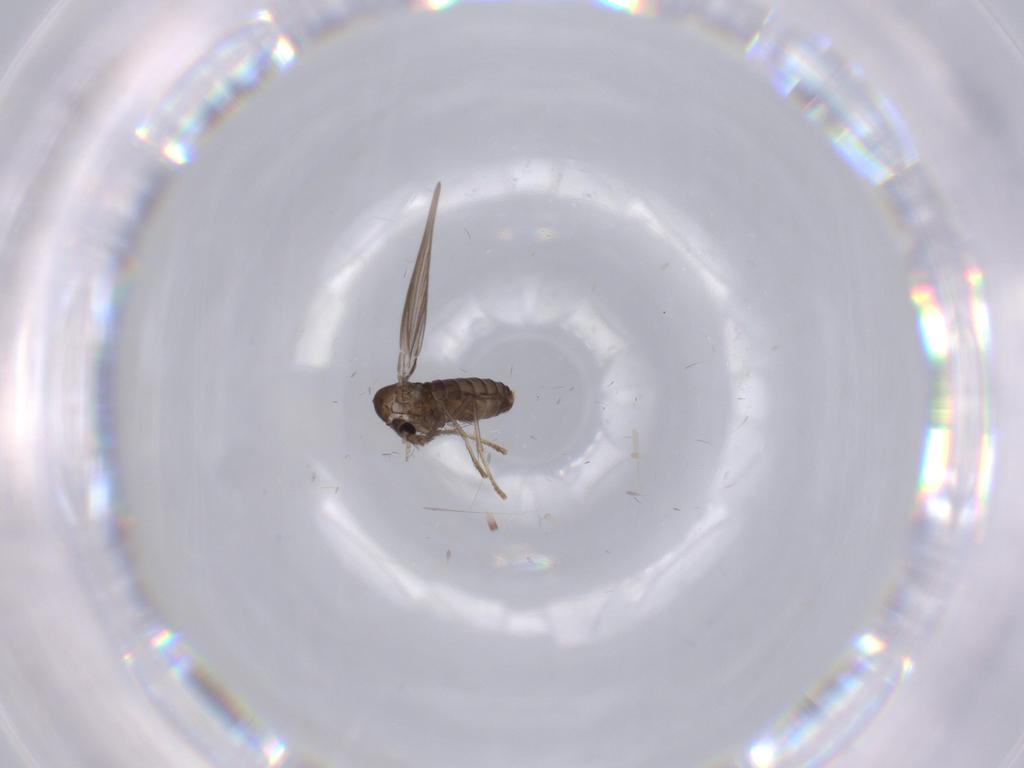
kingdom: Animalia
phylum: Arthropoda
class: Insecta
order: Diptera
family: Psychodidae
